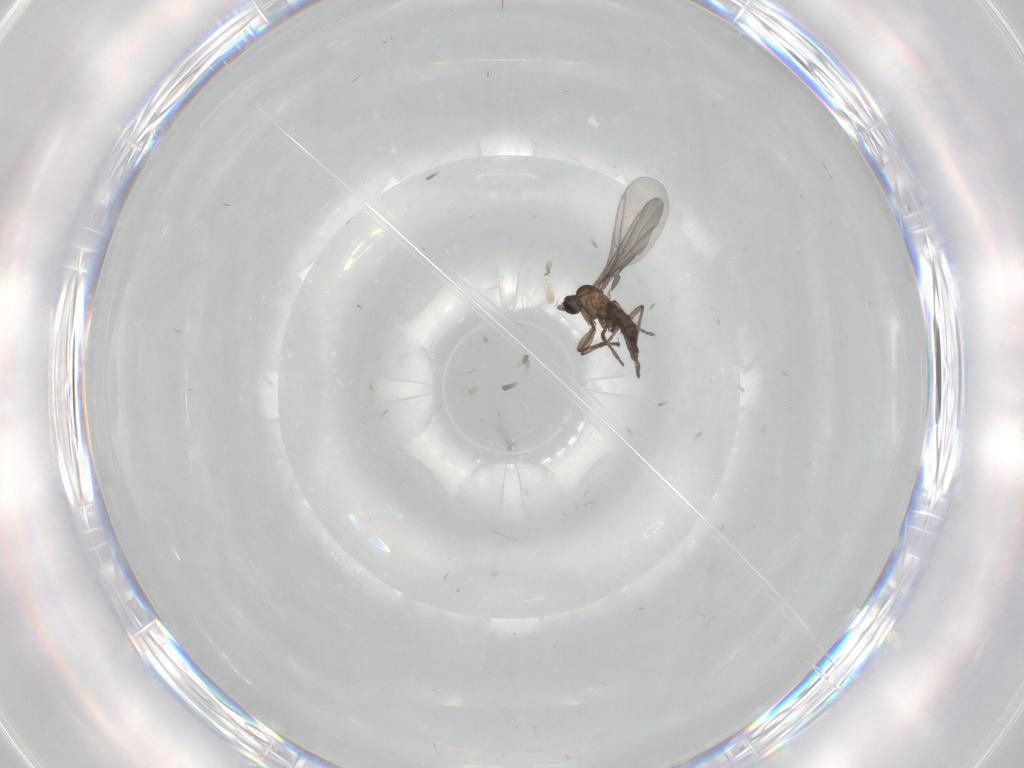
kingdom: Animalia
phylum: Arthropoda
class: Insecta
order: Diptera
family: Sciaridae
